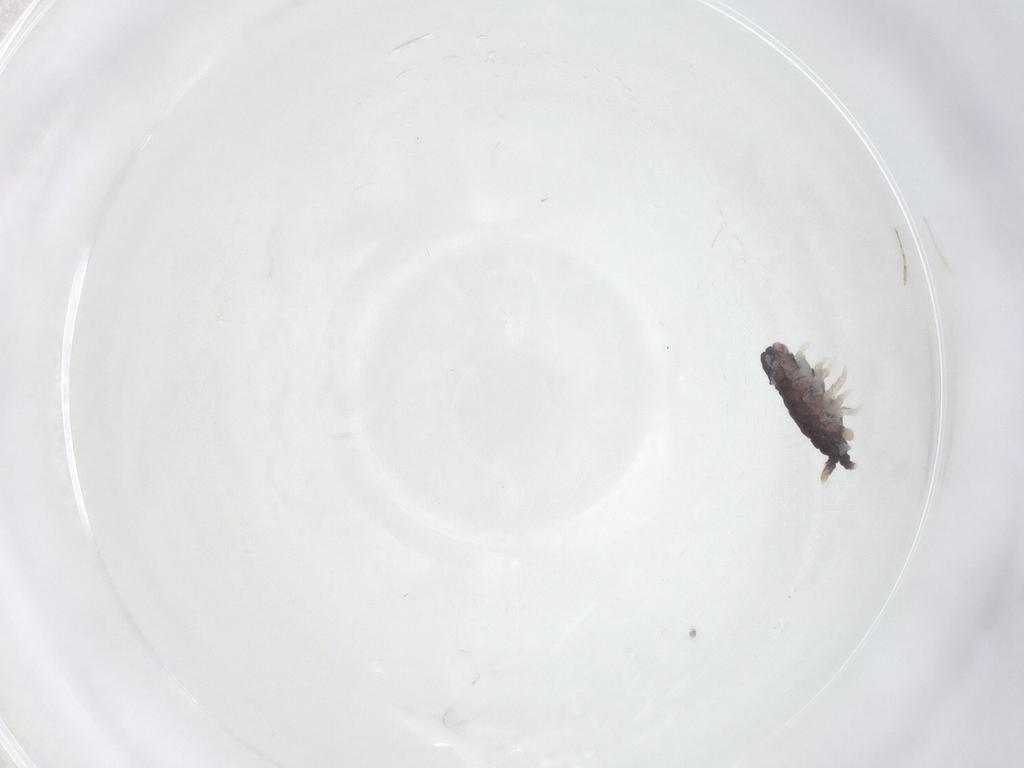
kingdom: Animalia
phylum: Arthropoda
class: Collembola
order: Poduromorpha
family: Neanuridae
